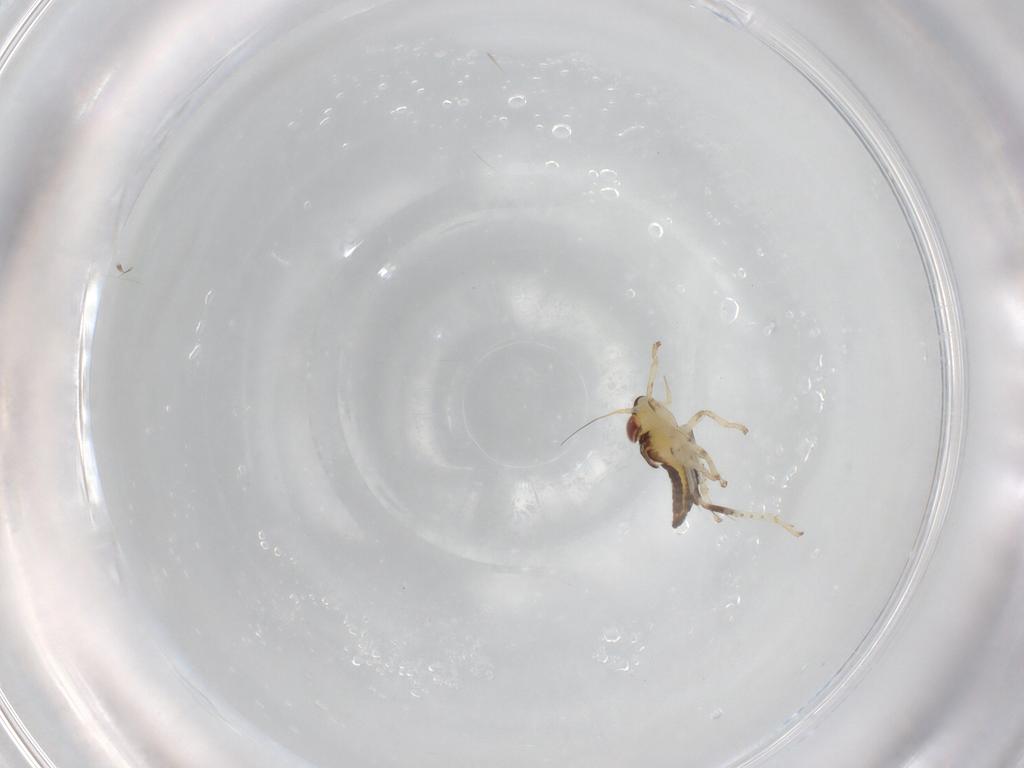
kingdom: Animalia
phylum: Arthropoda
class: Insecta
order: Hemiptera
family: Cicadellidae
